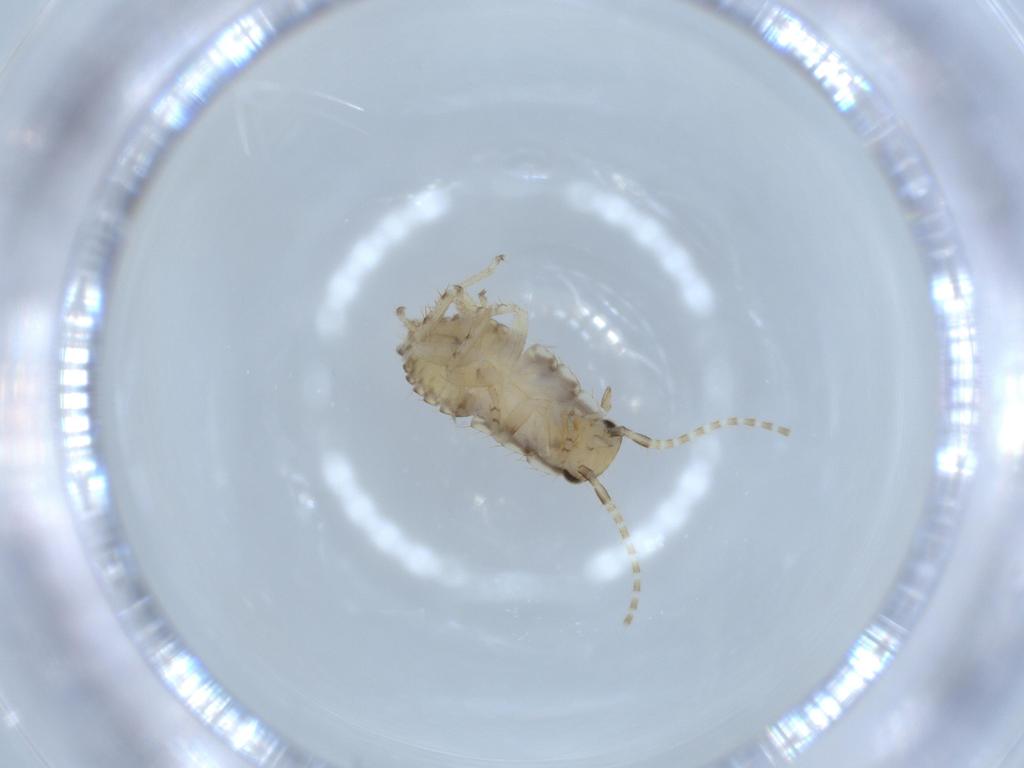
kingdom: Animalia
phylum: Arthropoda
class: Insecta
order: Blattodea
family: Ectobiidae
